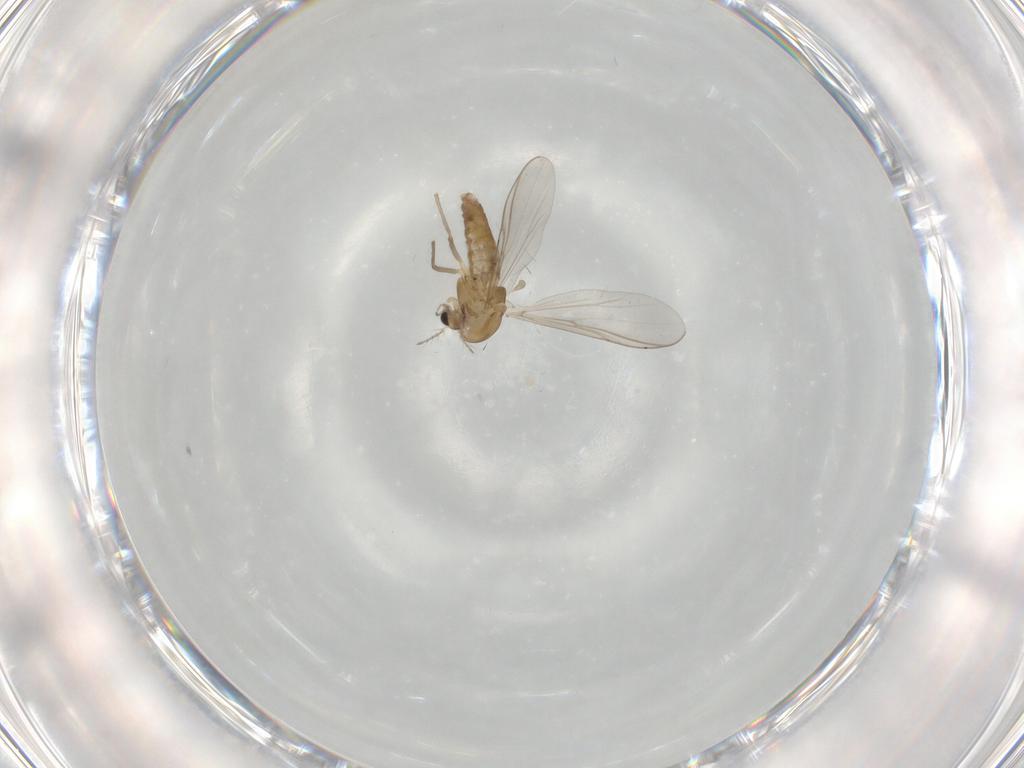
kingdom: Animalia
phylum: Arthropoda
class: Insecta
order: Diptera
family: Chironomidae
